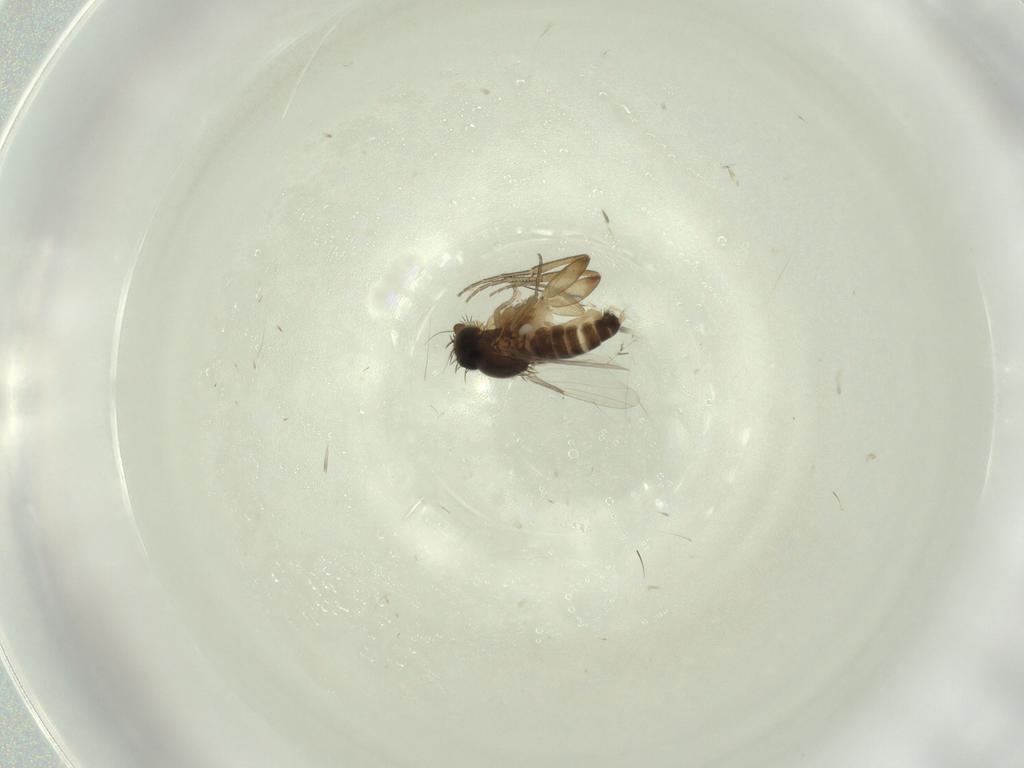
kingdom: Animalia
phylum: Arthropoda
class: Insecta
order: Diptera
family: Phoridae
